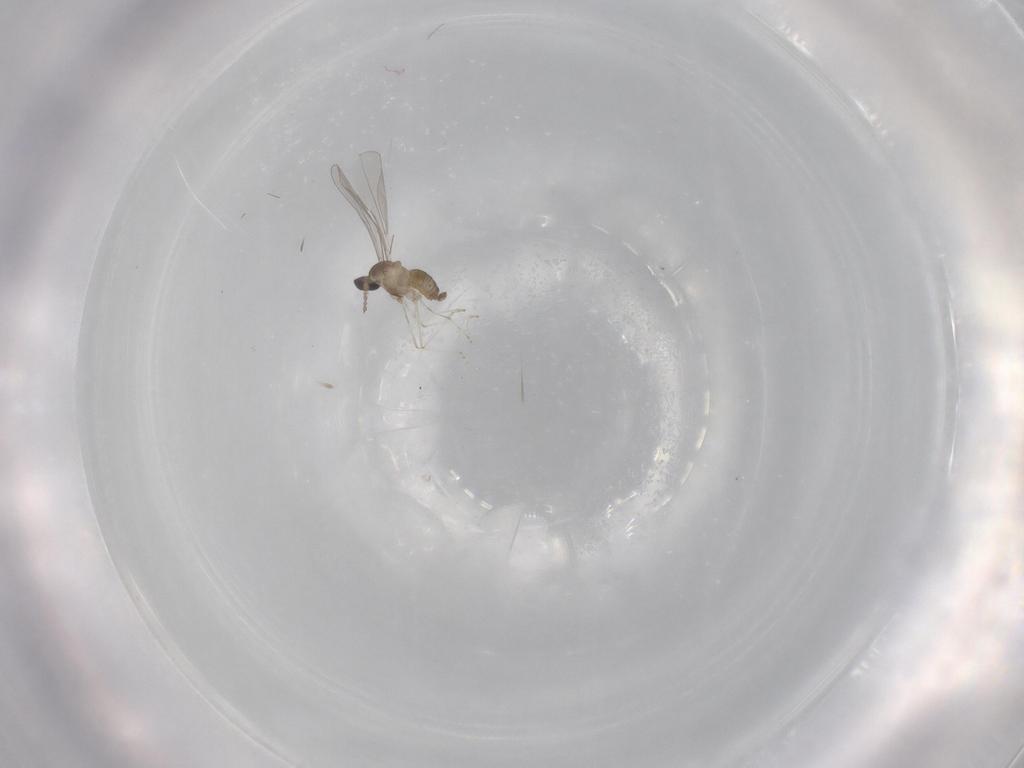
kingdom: Animalia
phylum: Arthropoda
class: Insecta
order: Diptera
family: Cecidomyiidae
